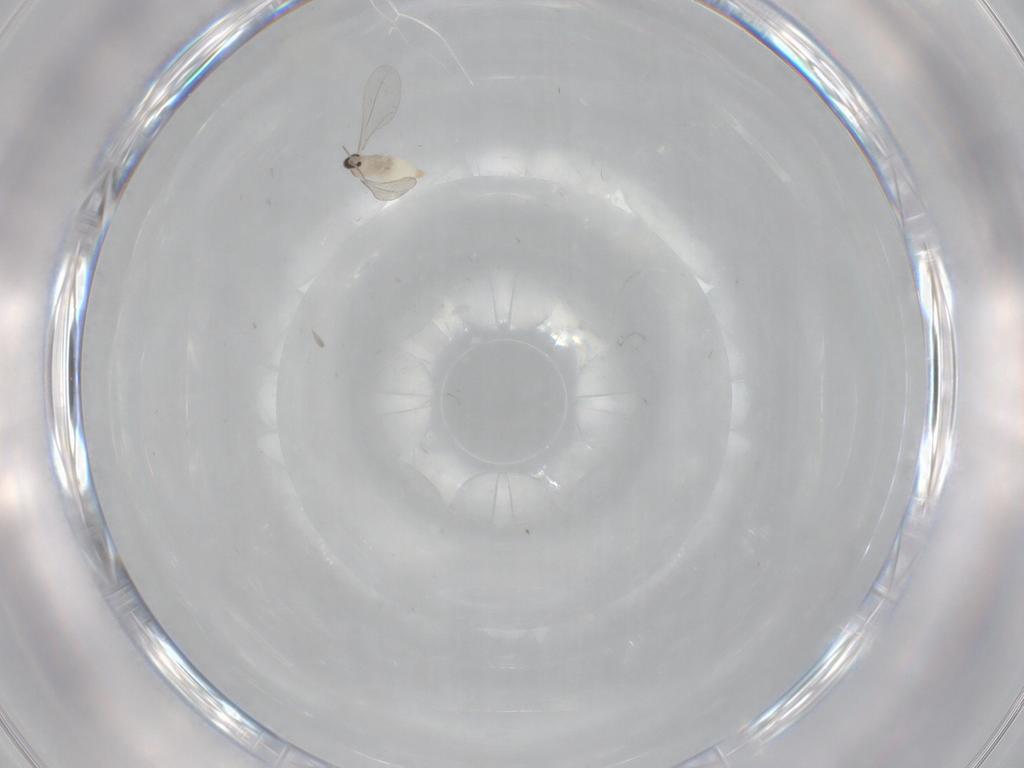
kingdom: Animalia
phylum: Arthropoda
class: Insecta
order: Diptera
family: Cecidomyiidae
